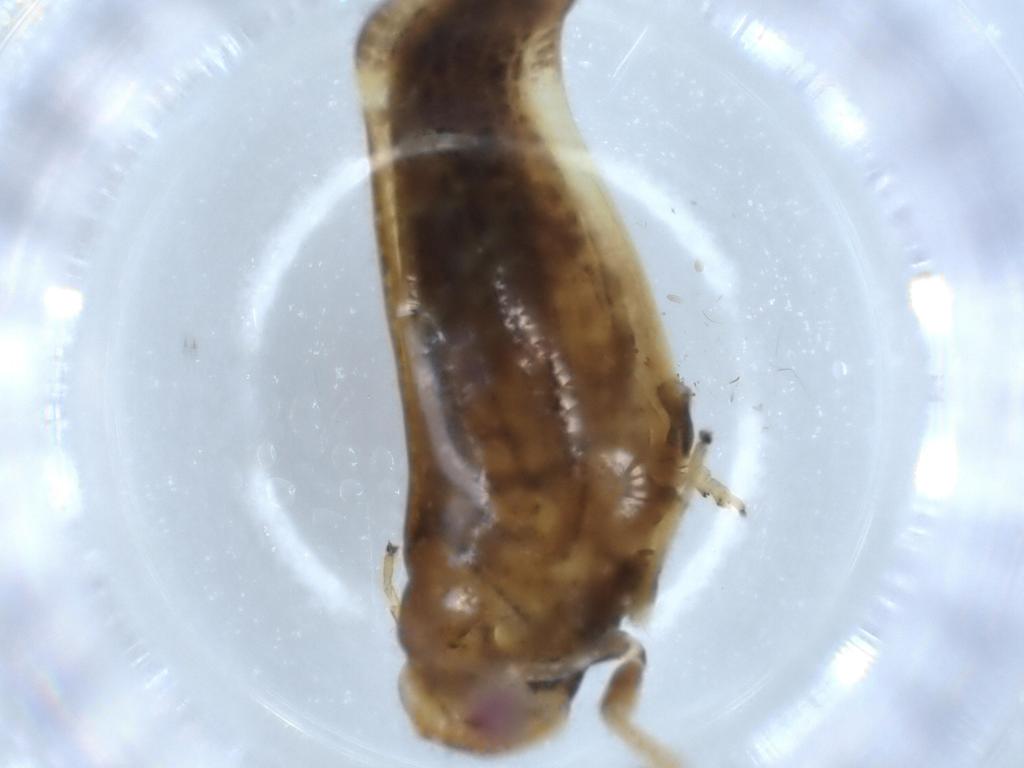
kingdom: Animalia
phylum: Arthropoda
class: Insecta
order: Hemiptera
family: Nogodinidae
